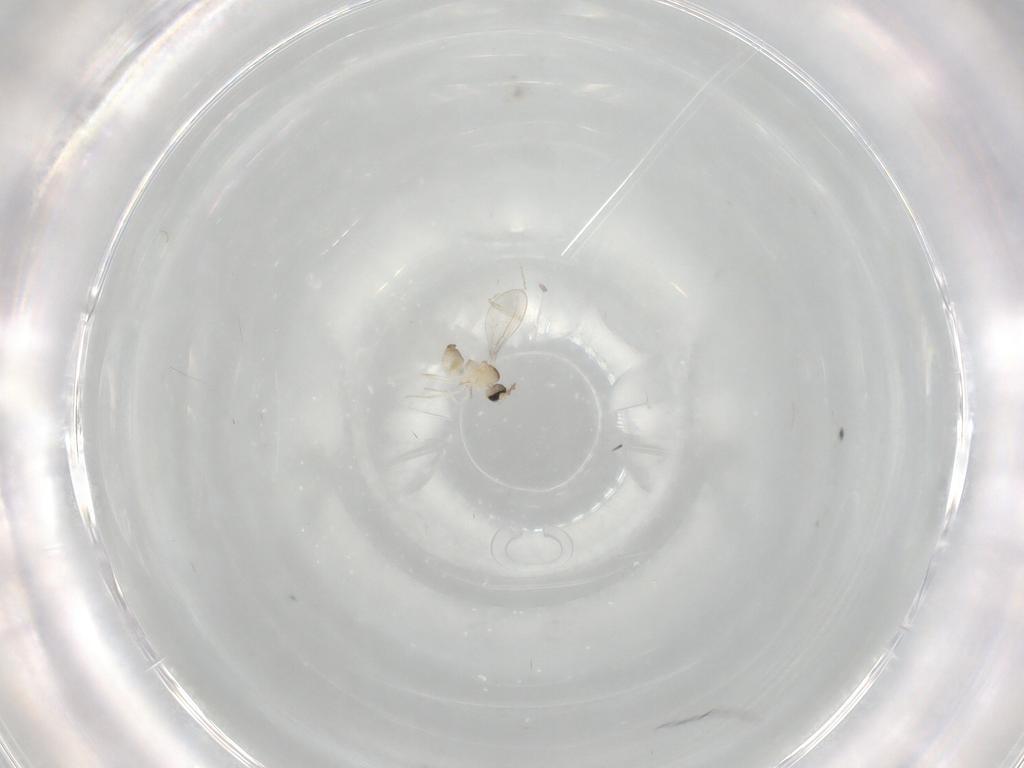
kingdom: Animalia
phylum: Arthropoda
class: Insecta
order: Diptera
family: Cecidomyiidae
